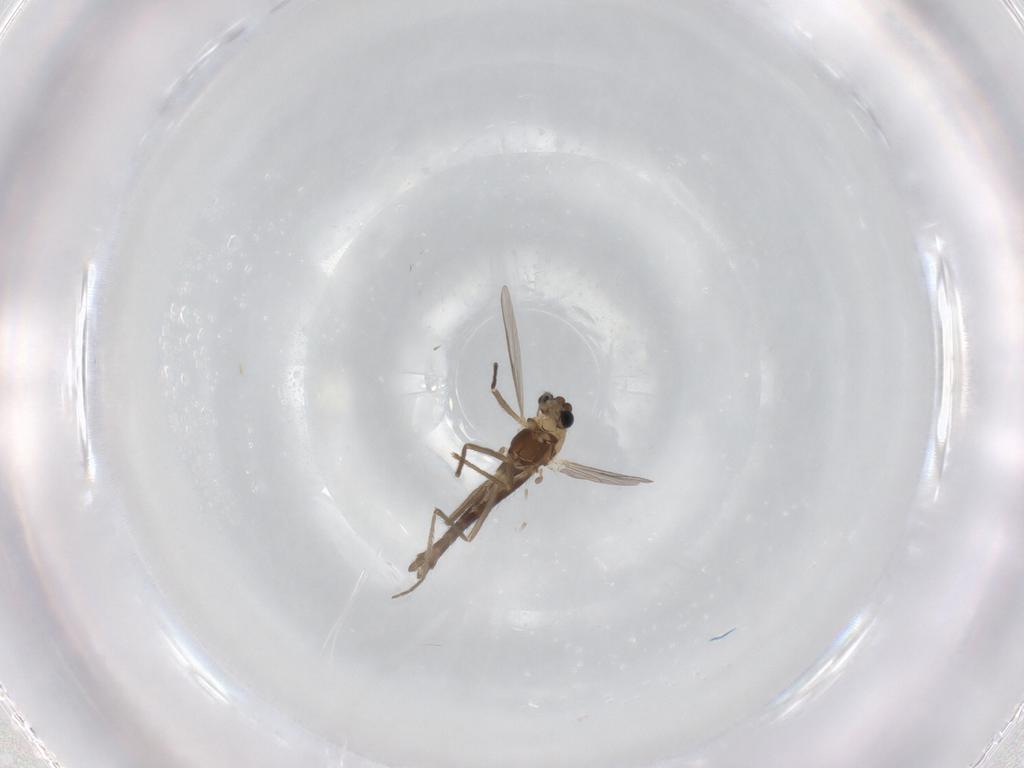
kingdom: Animalia
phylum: Arthropoda
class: Insecta
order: Diptera
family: Chironomidae
